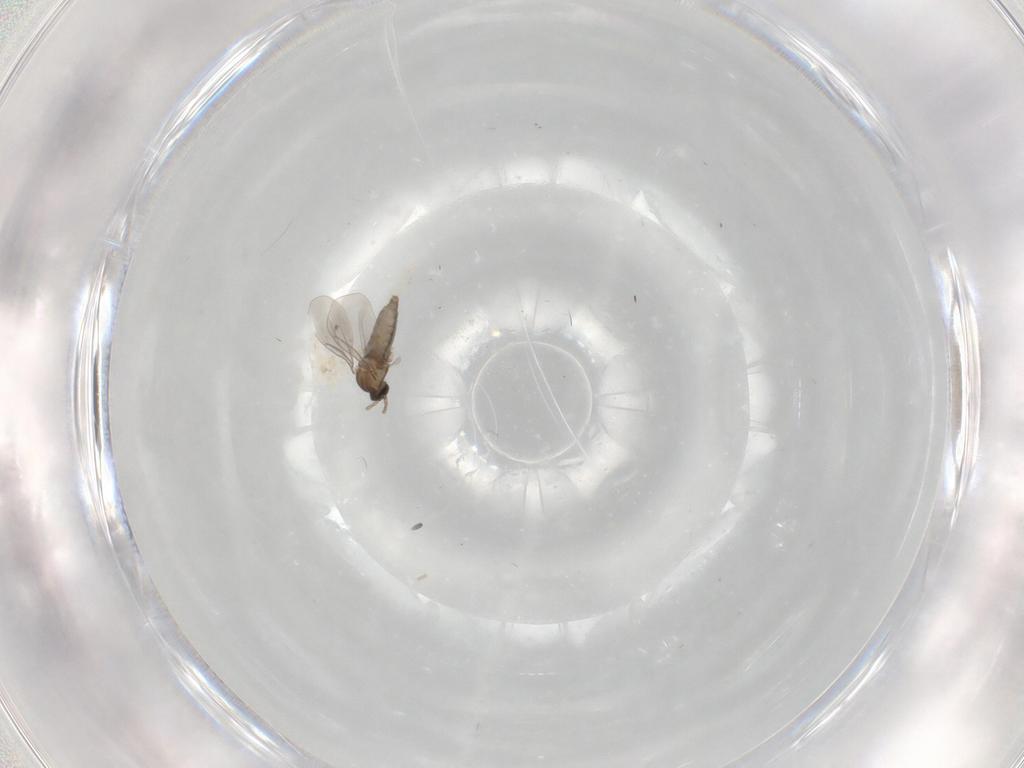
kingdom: Animalia
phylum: Arthropoda
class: Insecta
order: Diptera
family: Cecidomyiidae
